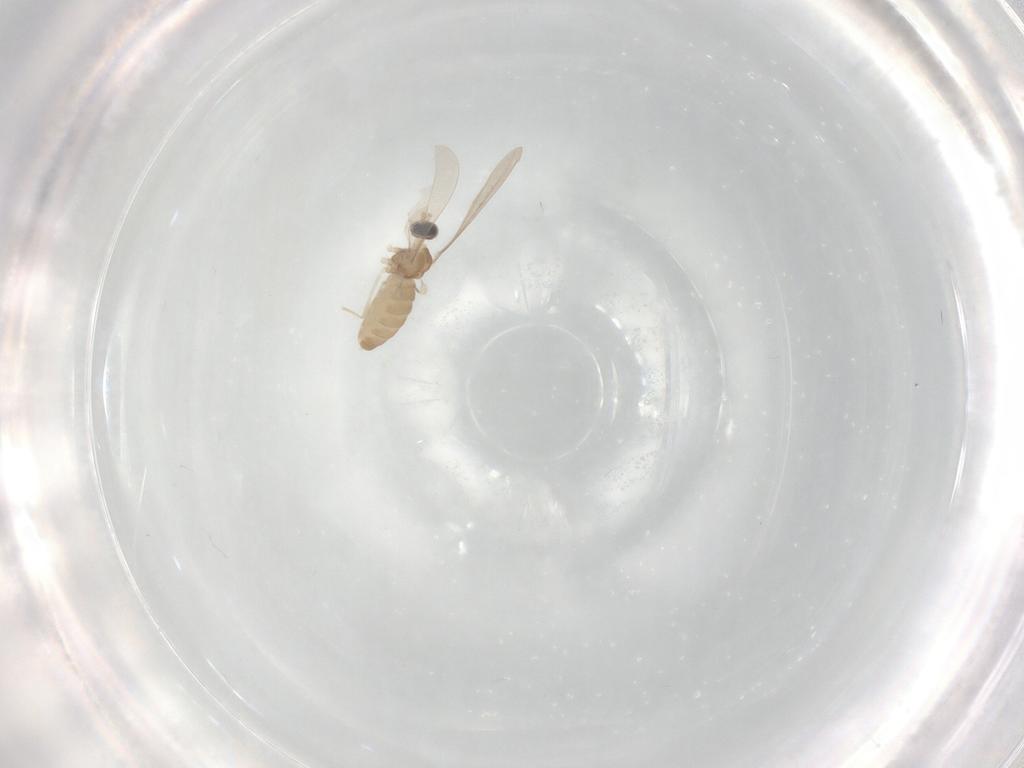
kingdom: Animalia
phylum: Arthropoda
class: Insecta
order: Diptera
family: Cecidomyiidae
